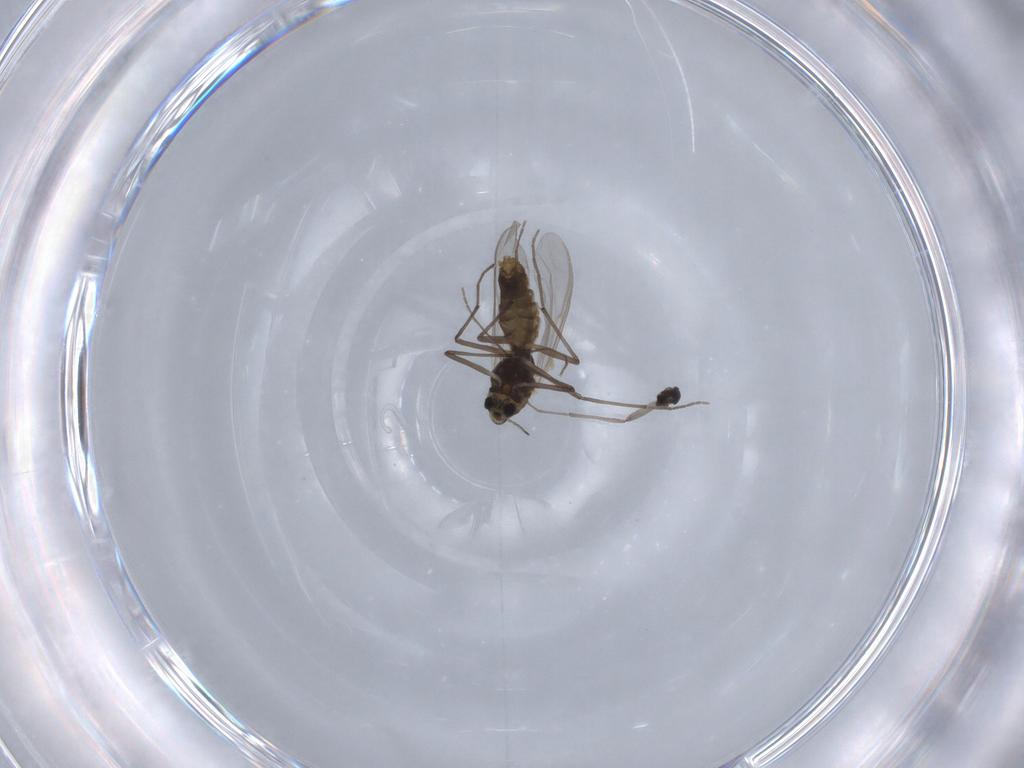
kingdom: Animalia
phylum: Arthropoda
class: Insecta
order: Diptera
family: Chironomidae
